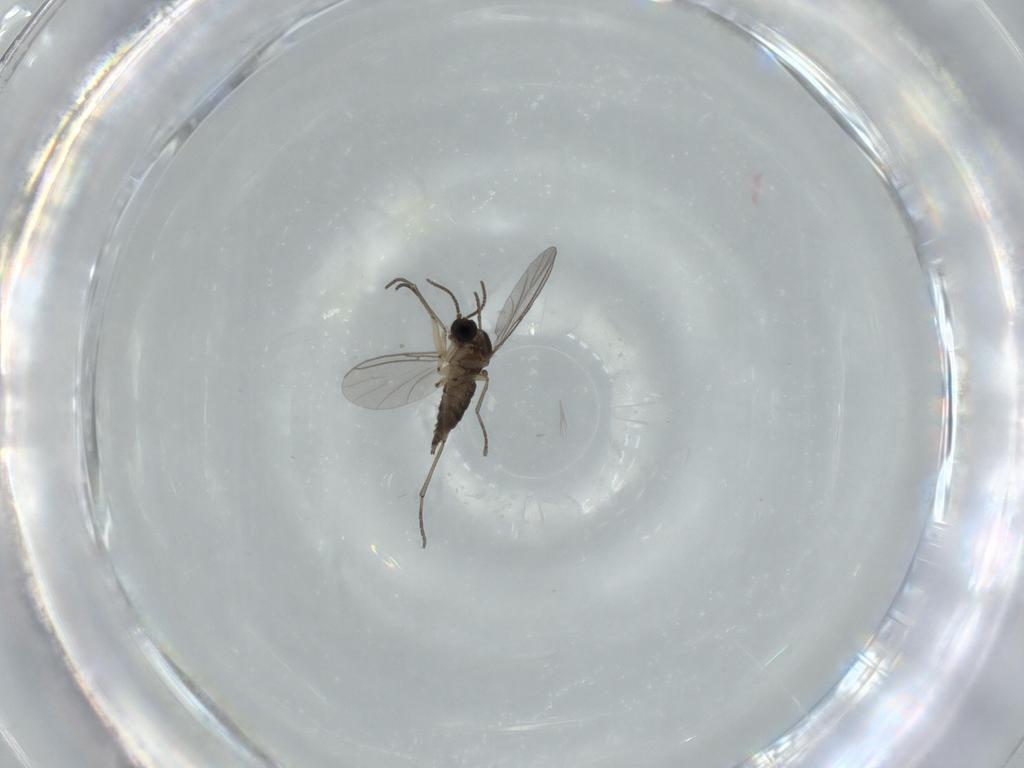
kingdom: Animalia
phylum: Arthropoda
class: Insecta
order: Diptera
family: Sciaridae
